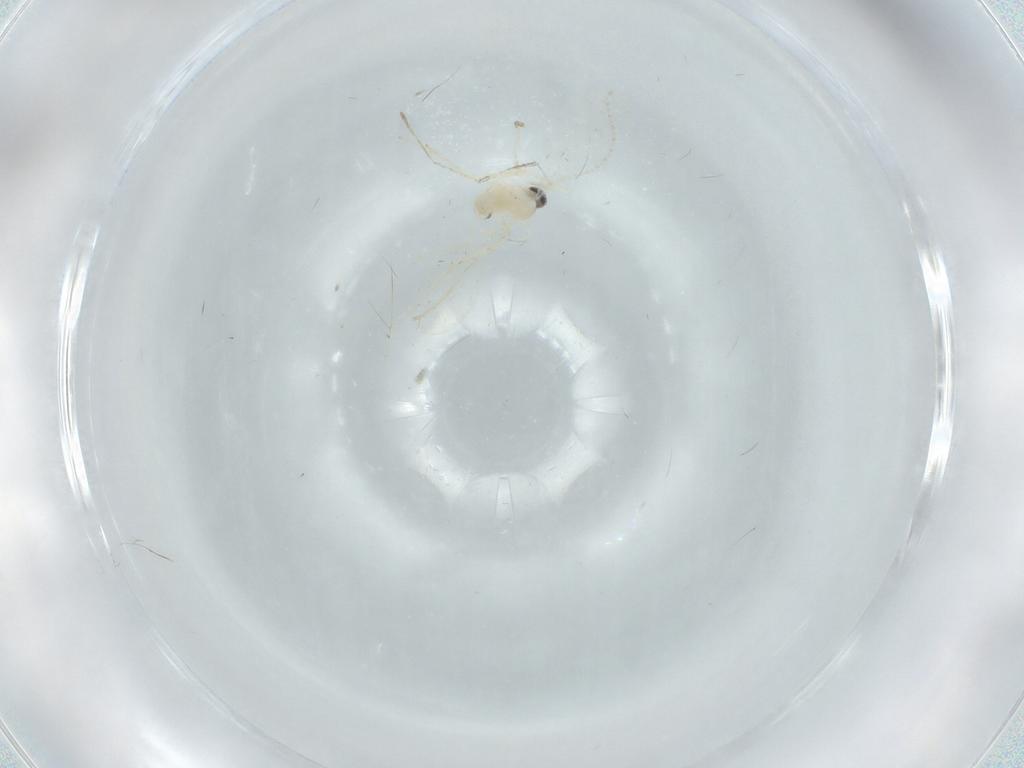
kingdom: Animalia
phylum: Arthropoda
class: Insecta
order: Diptera
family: Cecidomyiidae
